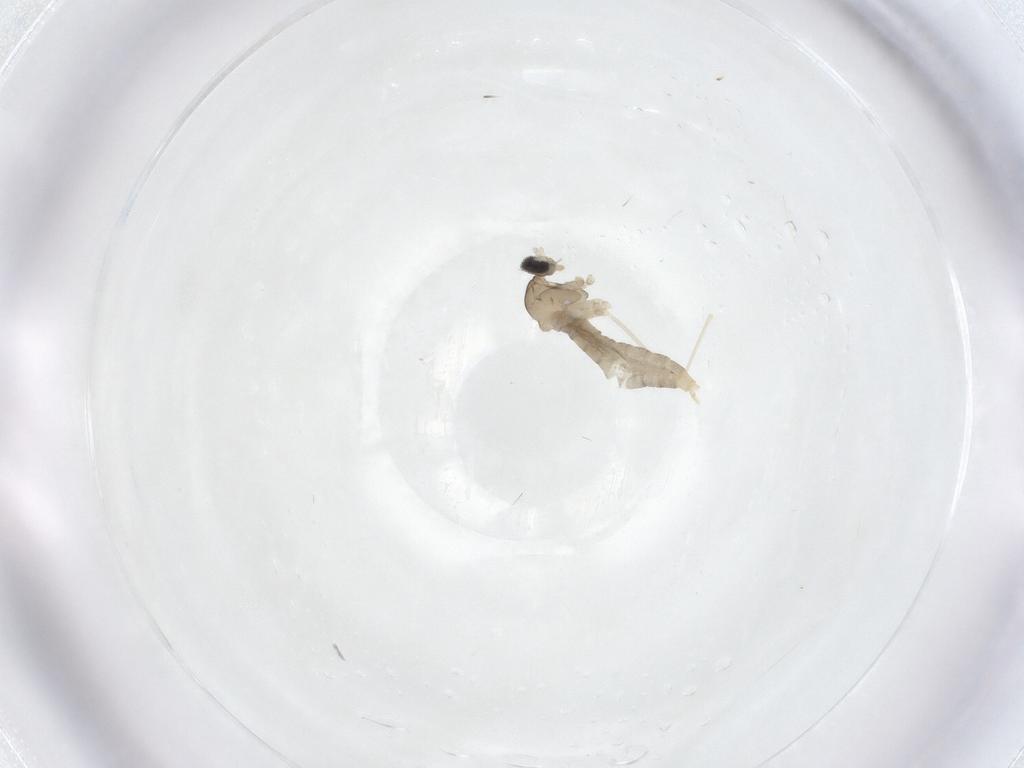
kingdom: Animalia
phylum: Arthropoda
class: Insecta
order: Diptera
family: Cecidomyiidae
